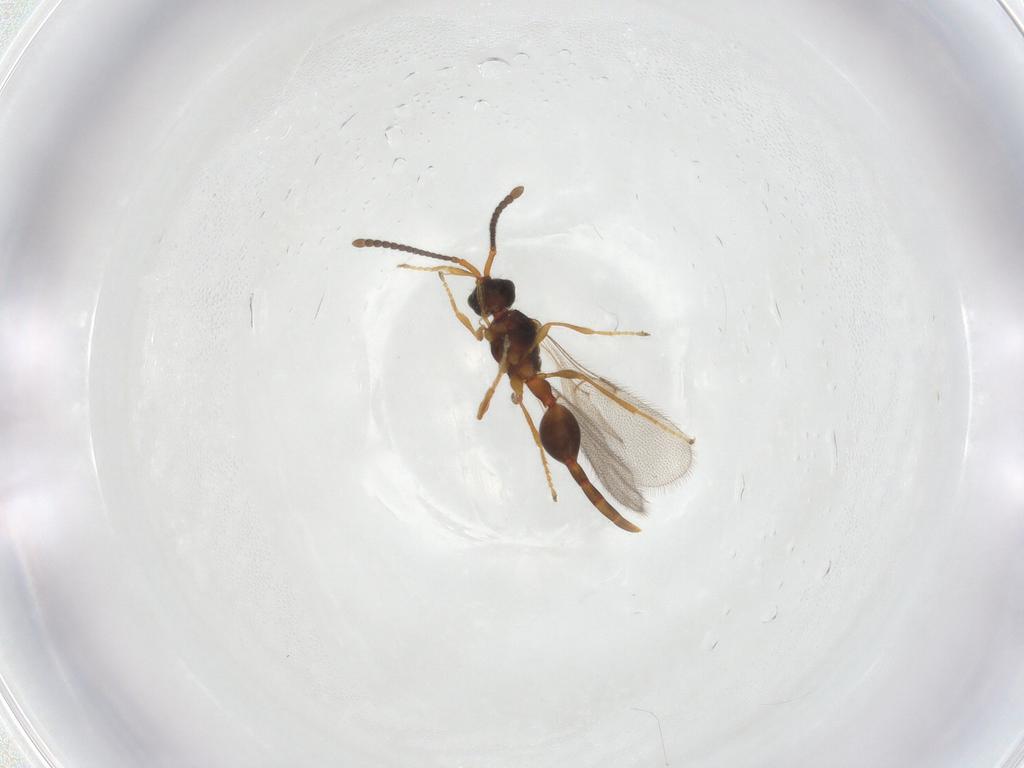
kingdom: Animalia
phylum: Arthropoda
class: Insecta
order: Hymenoptera
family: Diapriidae
